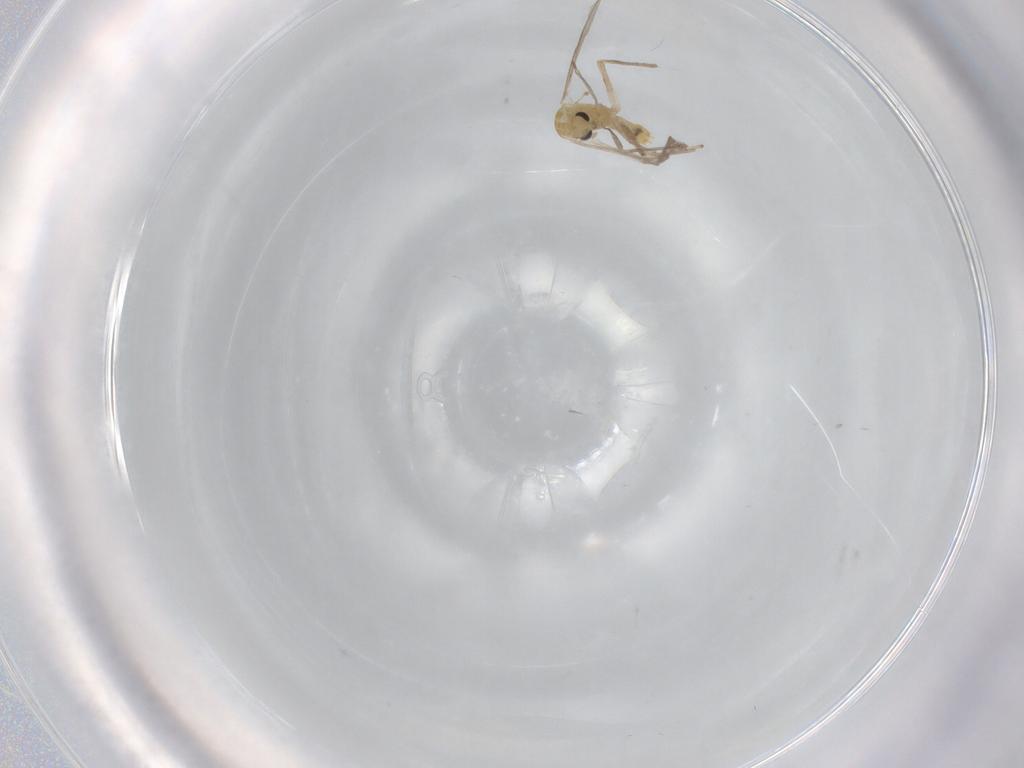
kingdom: Animalia
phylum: Arthropoda
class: Insecta
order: Diptera
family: Chironomidae
